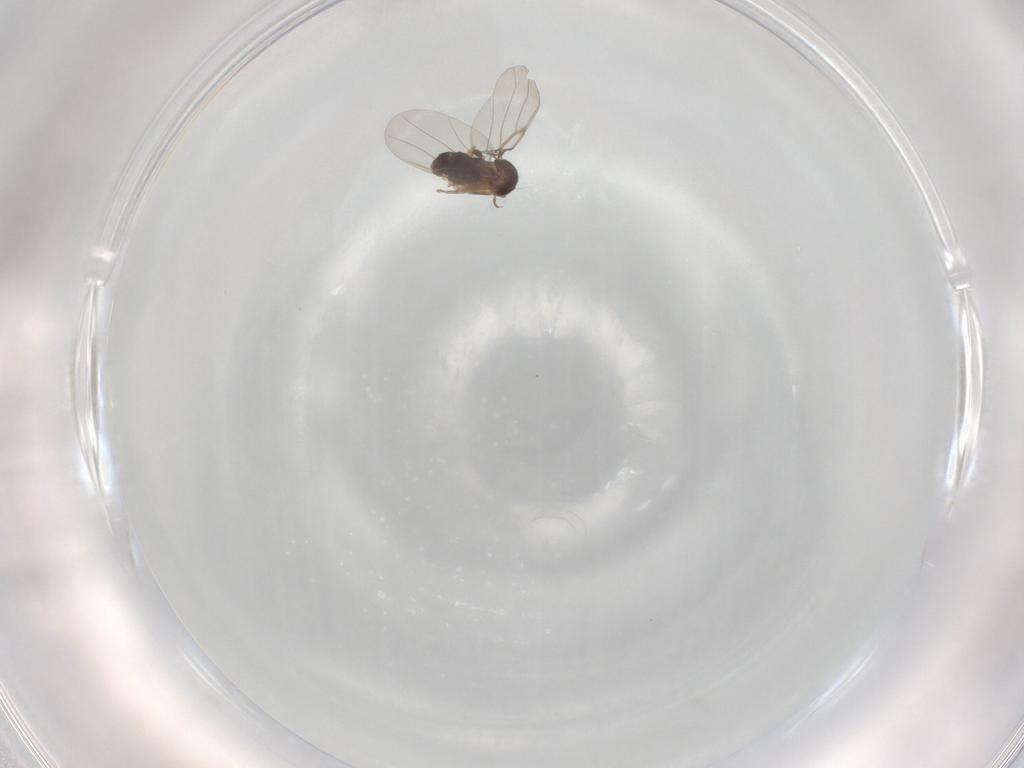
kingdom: Animalia
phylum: Arthropoda
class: Insecta
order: Diptera
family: Phoridae
